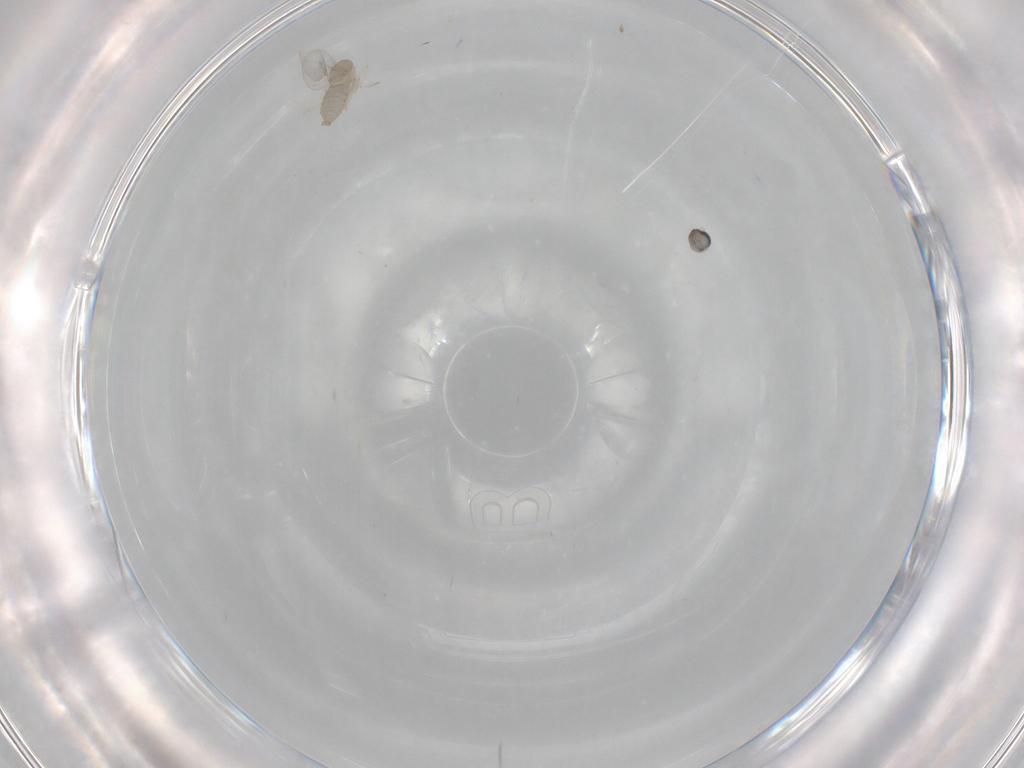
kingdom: Animalia
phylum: Arthropoda
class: Insecta
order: Diptera
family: Cecidomyiidae
